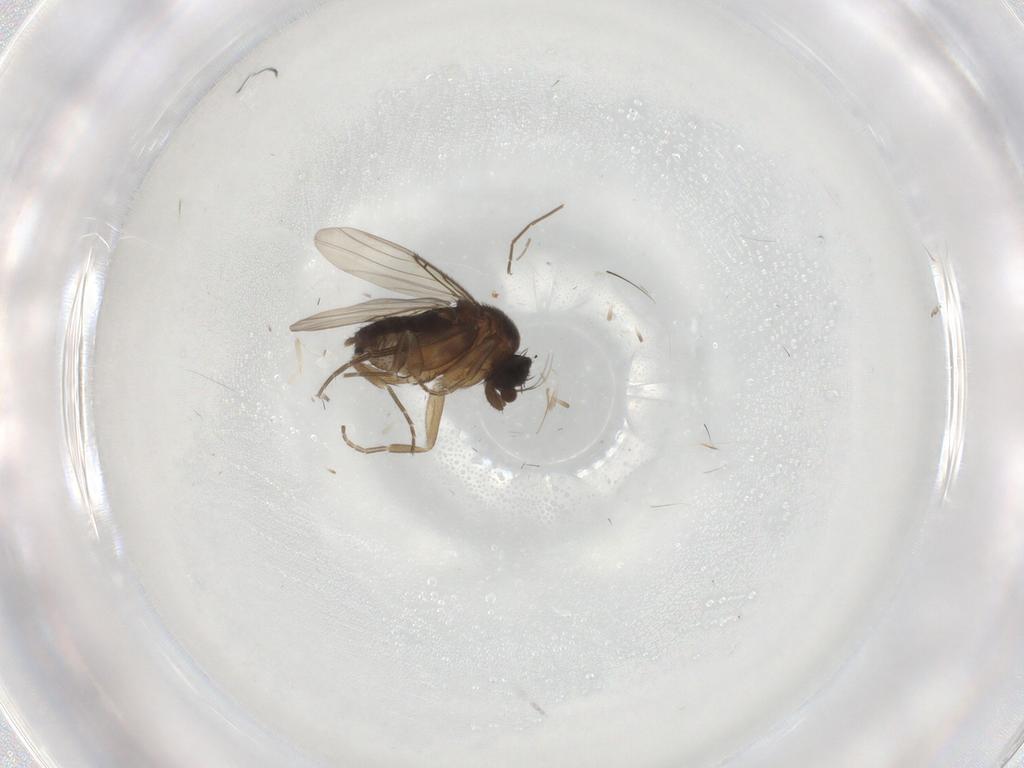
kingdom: Animalia
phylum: Arthropoda
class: Insecta
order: Diptera
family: Phoridae
